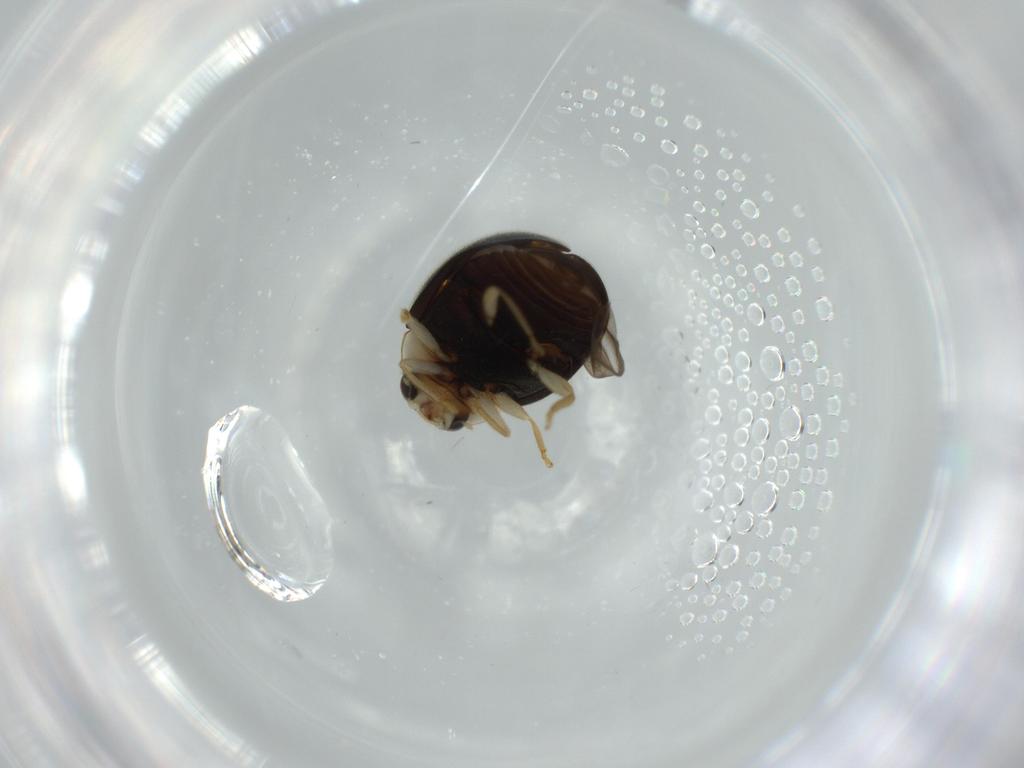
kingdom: Animalia
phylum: Arthropoda
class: Insecta
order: Coleoptera
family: Coccinellidae
